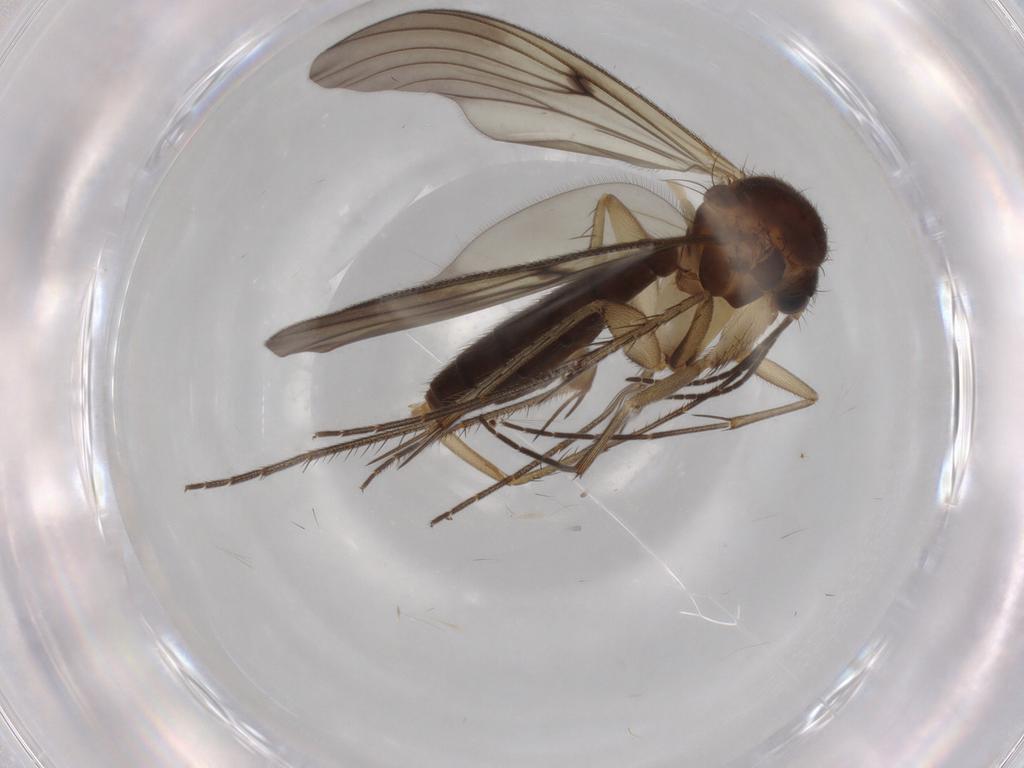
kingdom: Animalia
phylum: Arthropoda
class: Insecta
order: Diptera
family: Mycetophilidae
